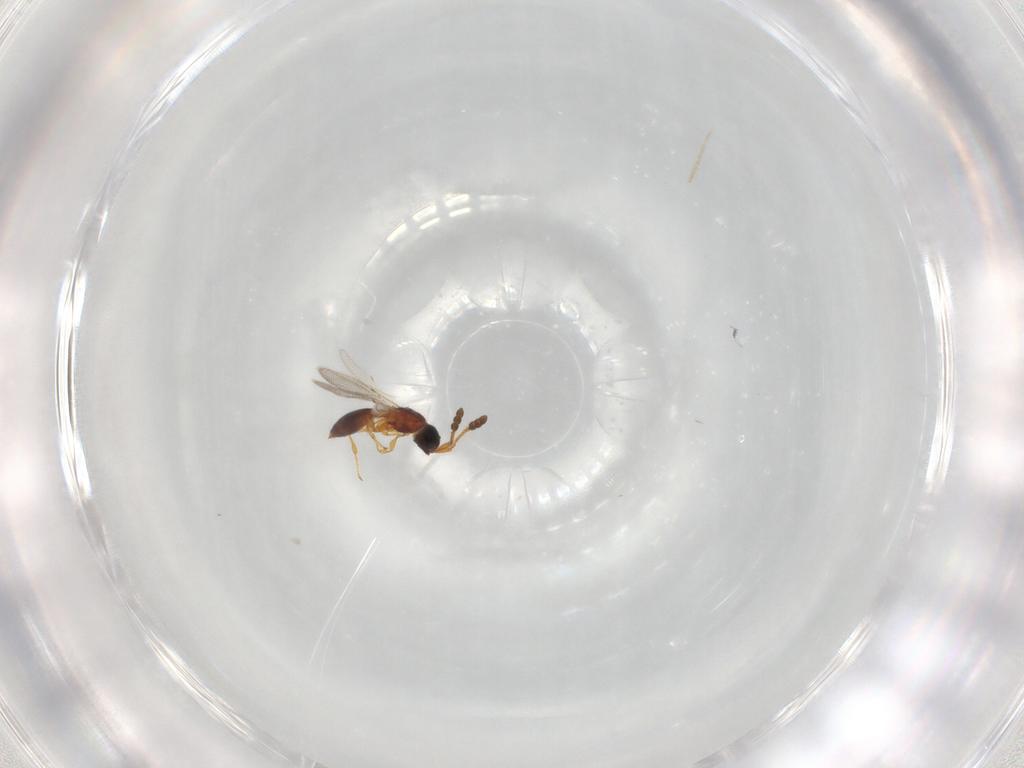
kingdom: Animalia
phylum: Arthropoda
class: Insecta
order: Hymenoptera
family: Diapriidae
